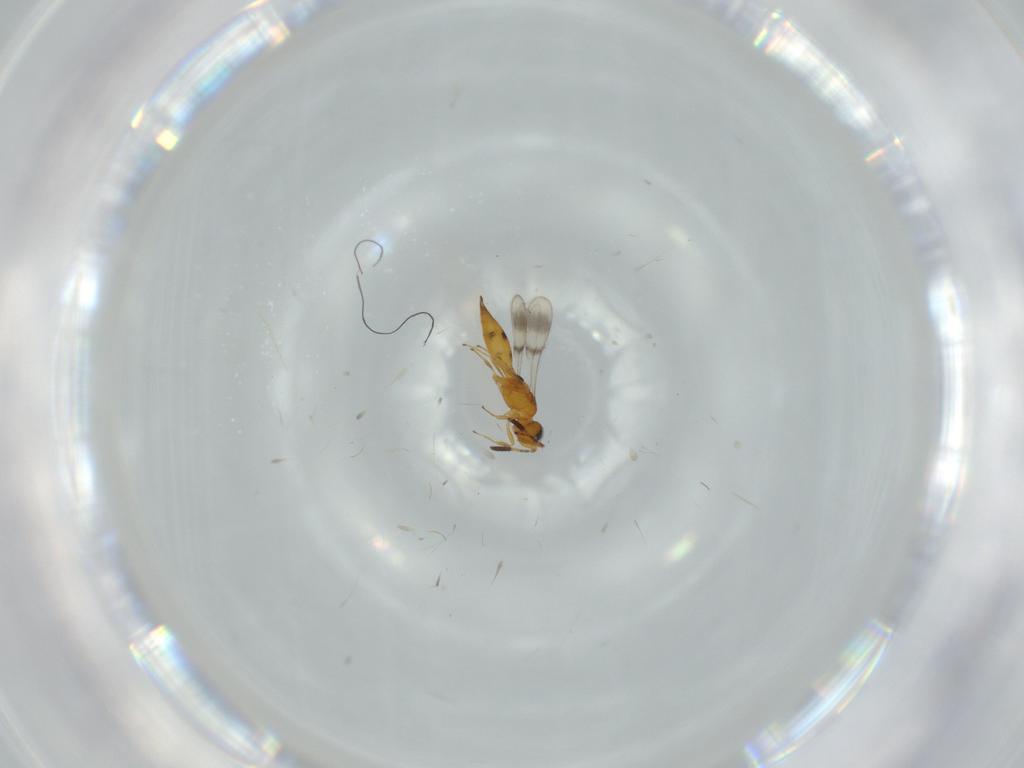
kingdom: Animalia
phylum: Arthropoda
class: Insecta
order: Hymenoptera
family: Scelionidae
